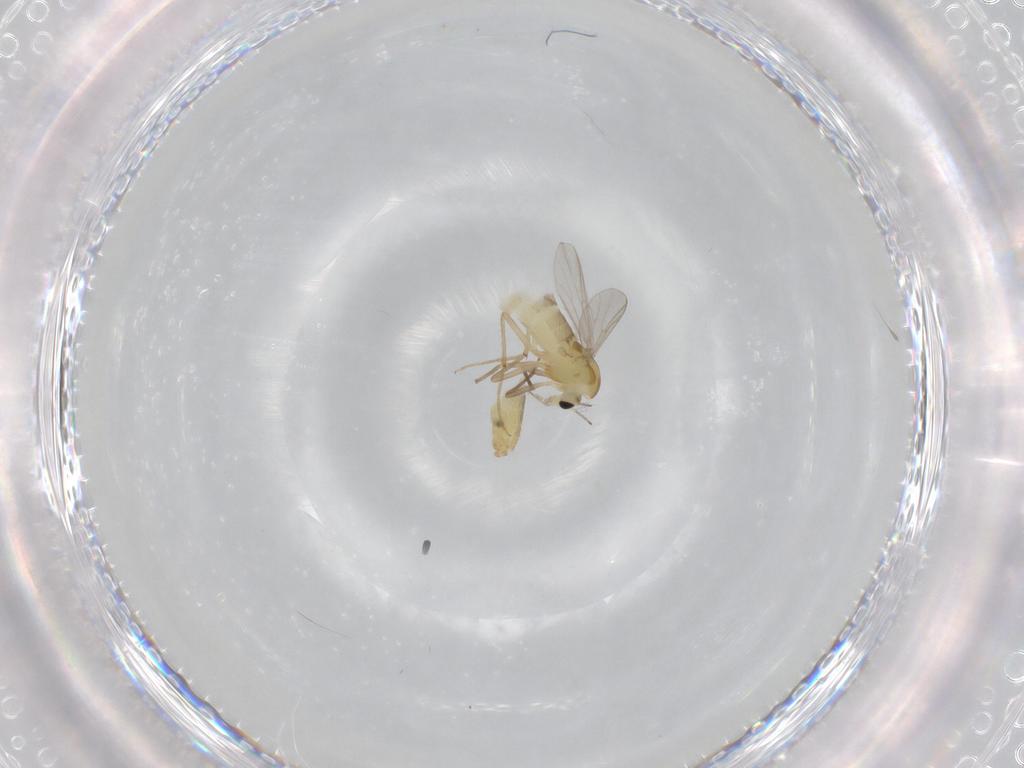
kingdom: Animalia
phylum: Arthropoda
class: Insecta
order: Diptera
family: Chironomidae
